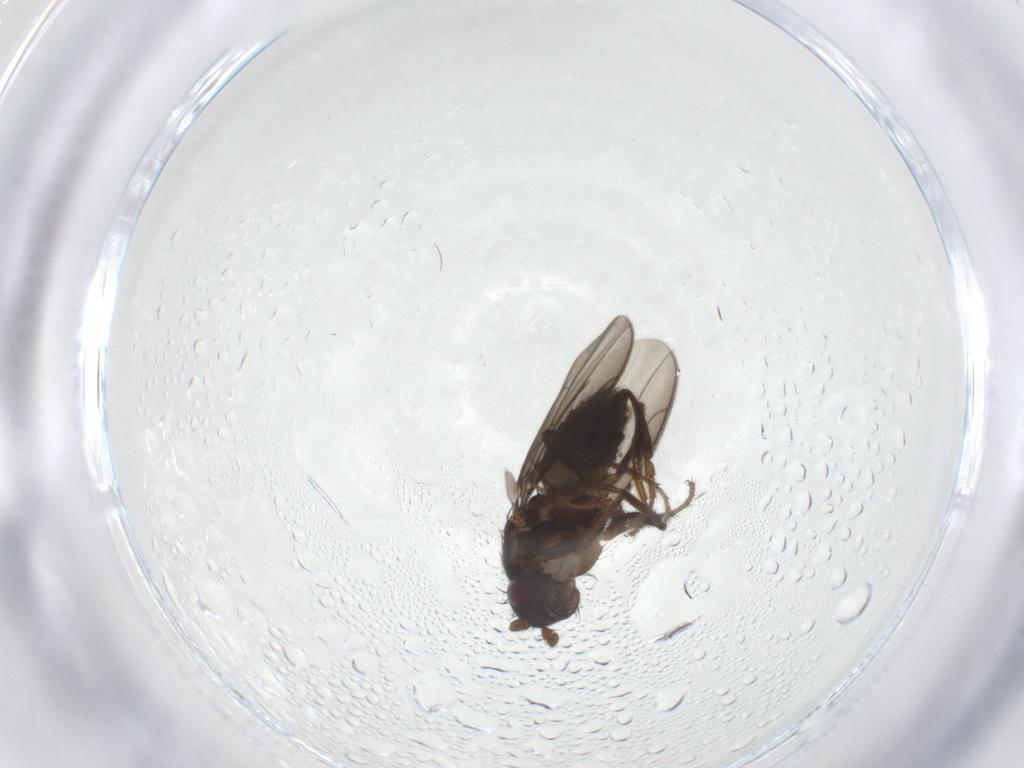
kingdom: Animalia
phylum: Arthropoda
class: Insecta
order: Diptera
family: Sphaeroceridae
